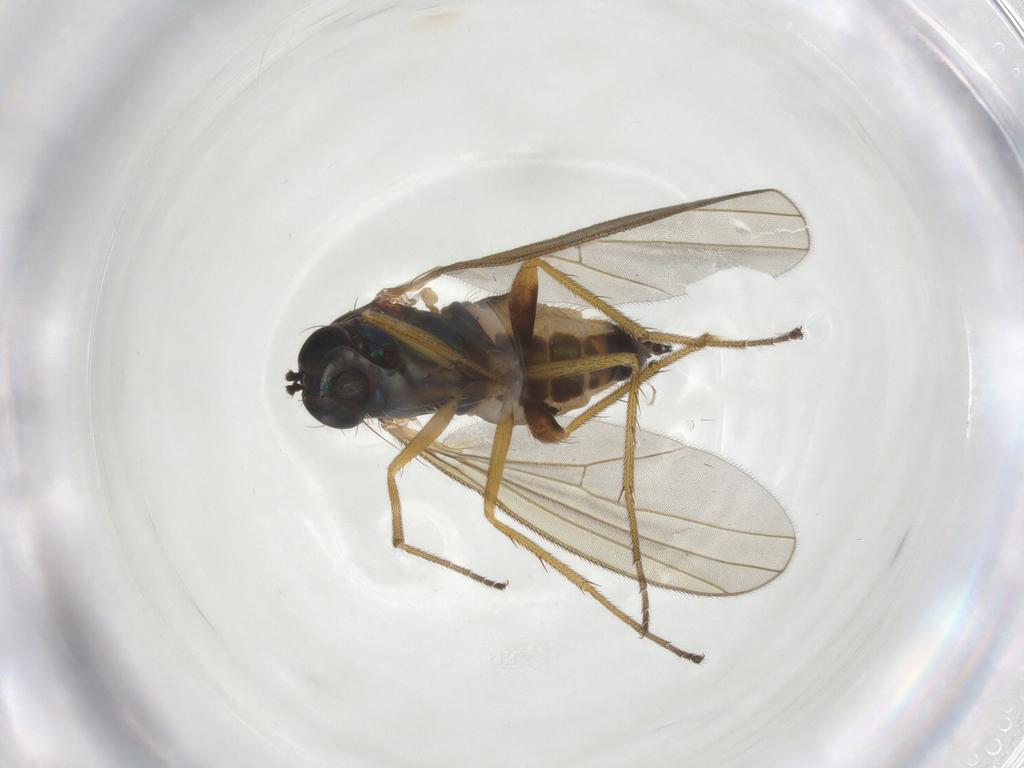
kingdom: Animalia
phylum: Arthropoda
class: Insecta
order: Diptera
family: Dolichopodidae
